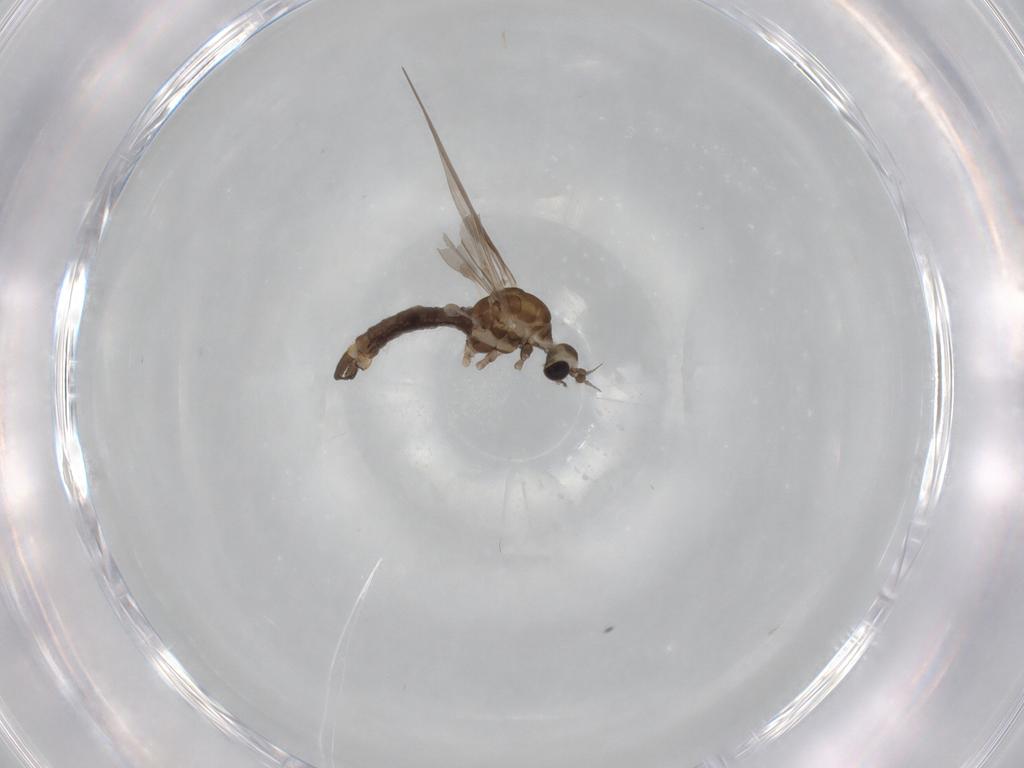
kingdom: Animalia
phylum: Arthropoda
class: Insecta
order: Diptera
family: Limoniidae
